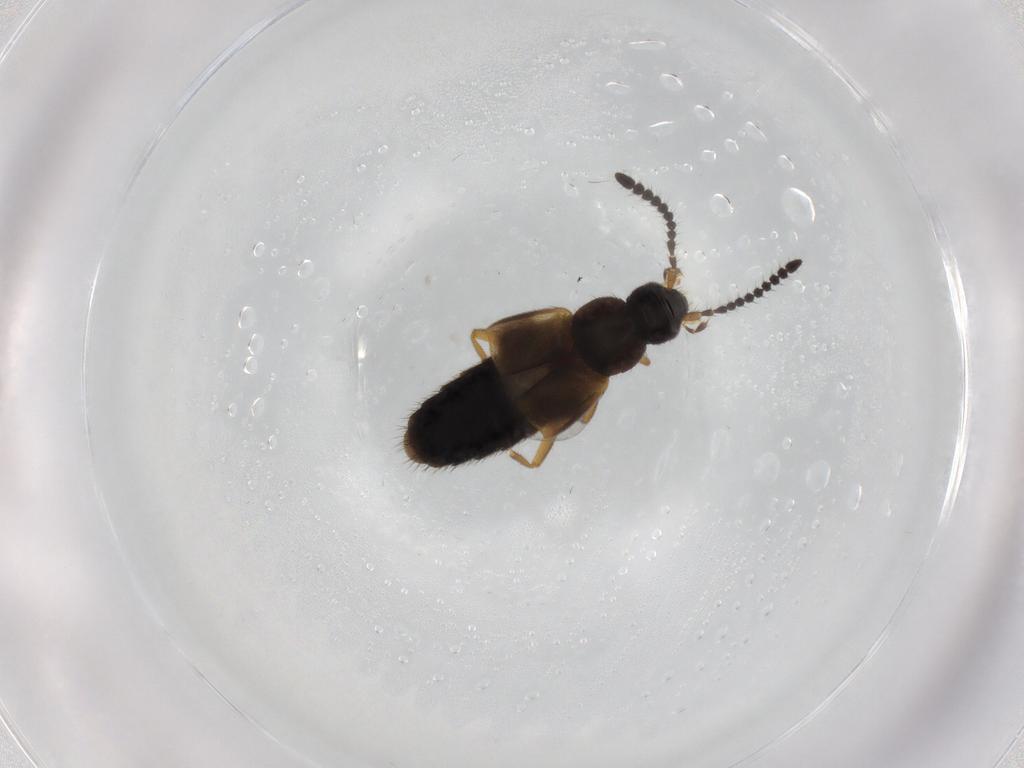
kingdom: Animalia
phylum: Arthropoda
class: Insecta
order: Coleoptera
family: Staphylinidae
